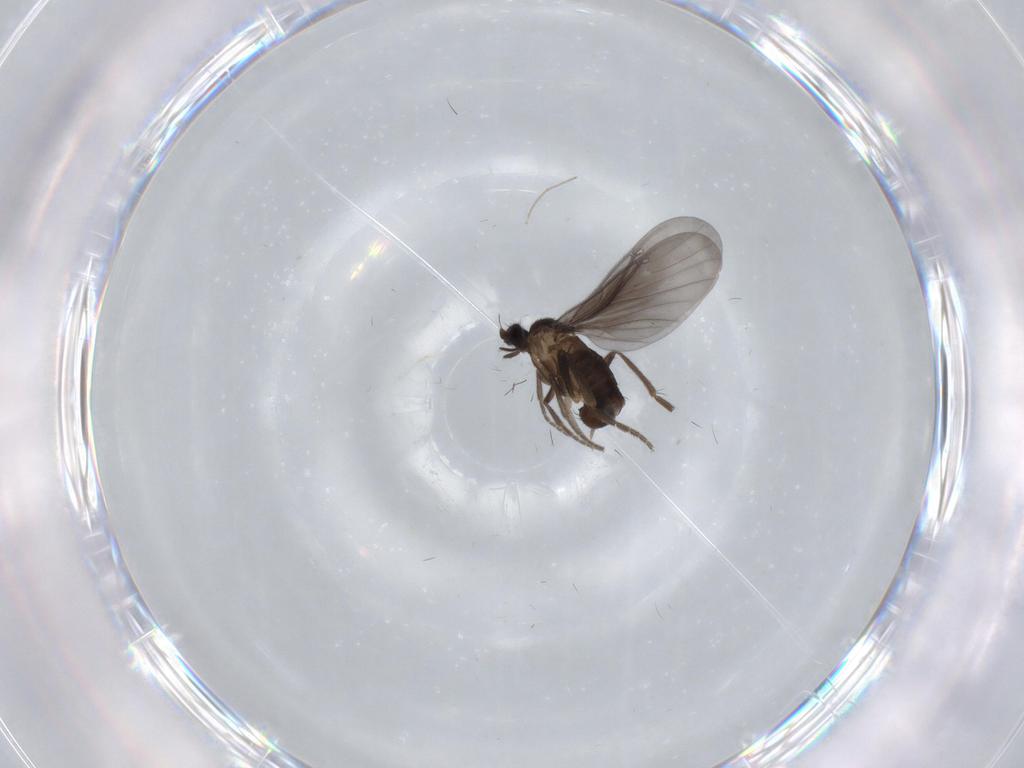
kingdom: Animalia
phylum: Arthropoda
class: Insecta
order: Diptera
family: Phoridae
